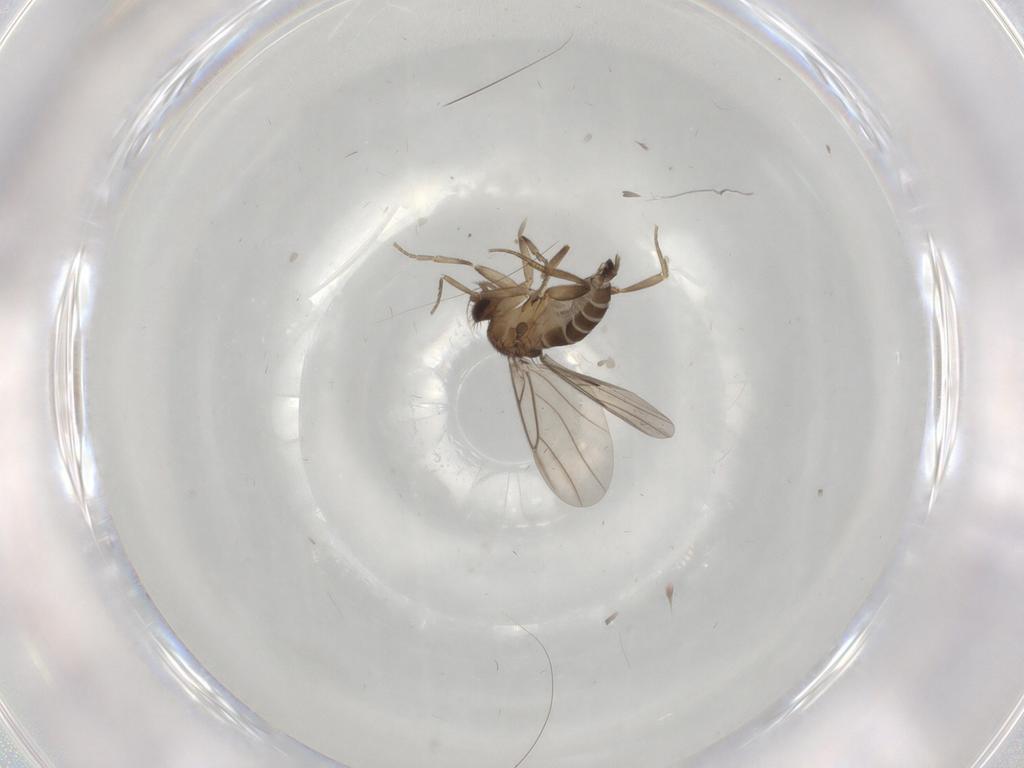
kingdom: Animalia
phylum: Arthropoda
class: Insecta
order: Diptera
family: Phoridae
